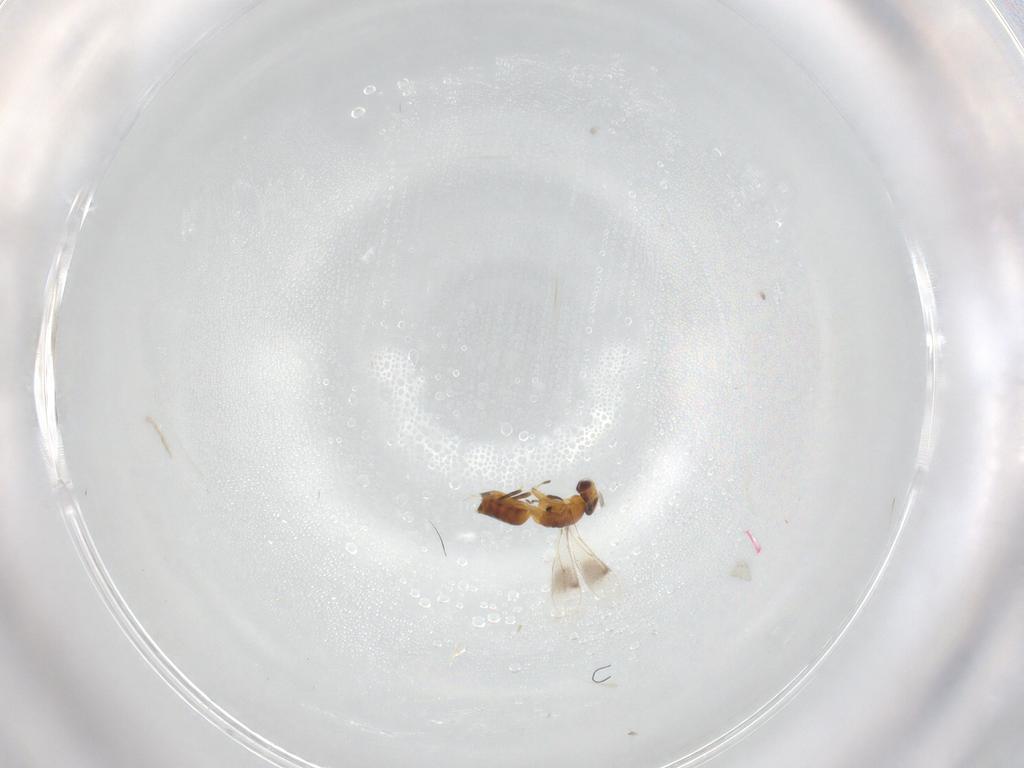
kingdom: Animalia
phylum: Arthropoda
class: Insecta
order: Hymenoptera
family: Eulophidae
